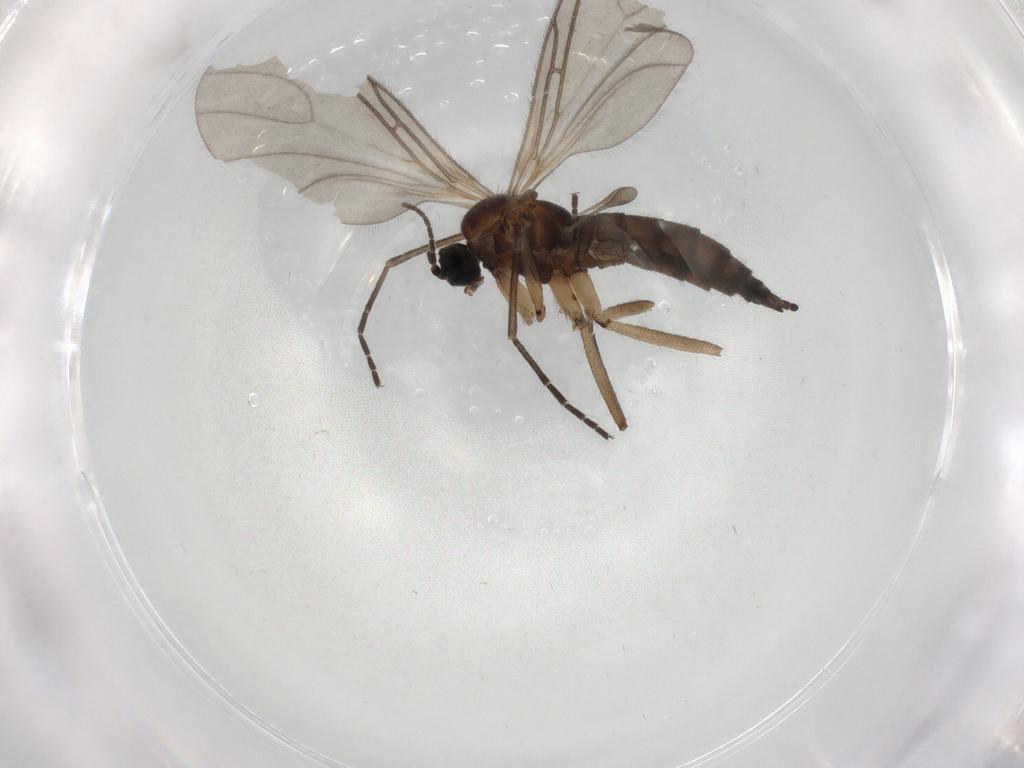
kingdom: Animalia
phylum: Arthropoda
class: Insecta
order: Diptera
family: Sciaridae
